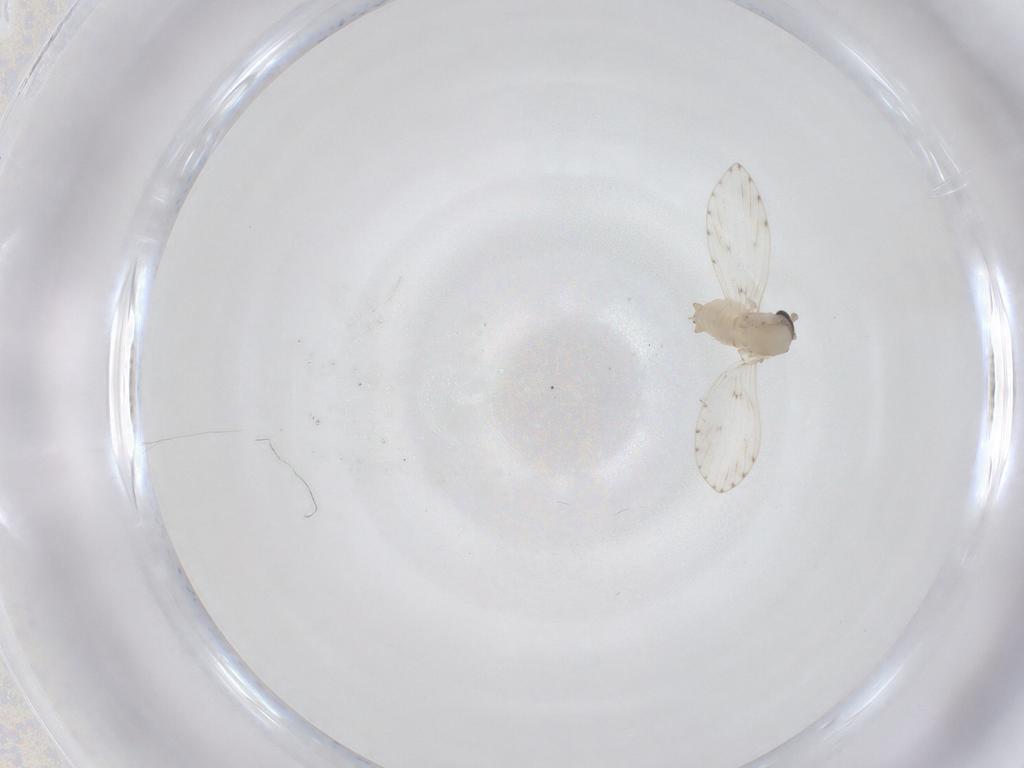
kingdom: Animalia
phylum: Arthropoda
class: Insecta
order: Diptera
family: Psychodidae
